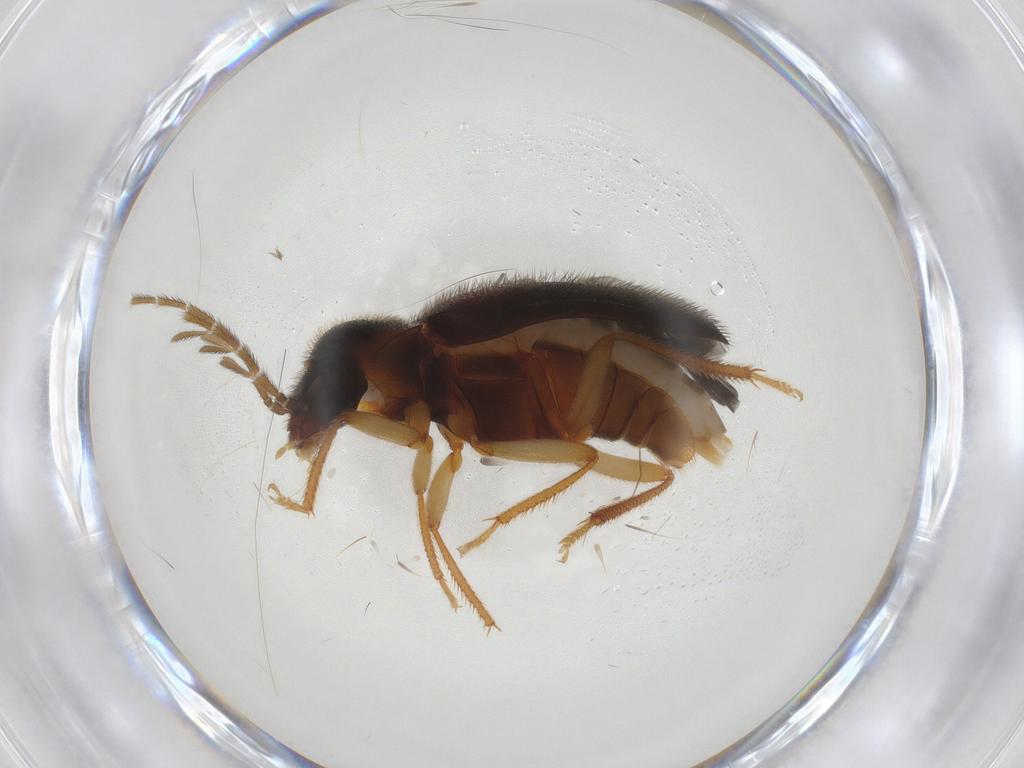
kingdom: Animalia
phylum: Arthropoda
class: Insecta
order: Coleoptera
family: Ptilodactylidae
